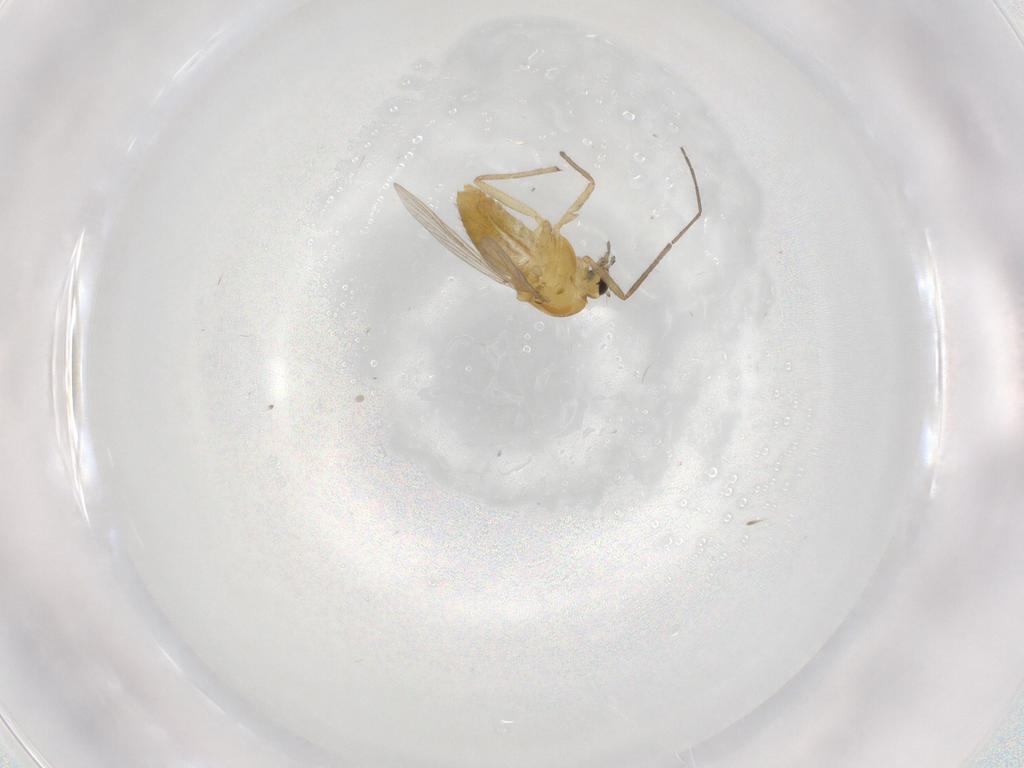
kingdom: Animalia
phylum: Arthropoda
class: Insecta
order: Diptera
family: Chironomidae
